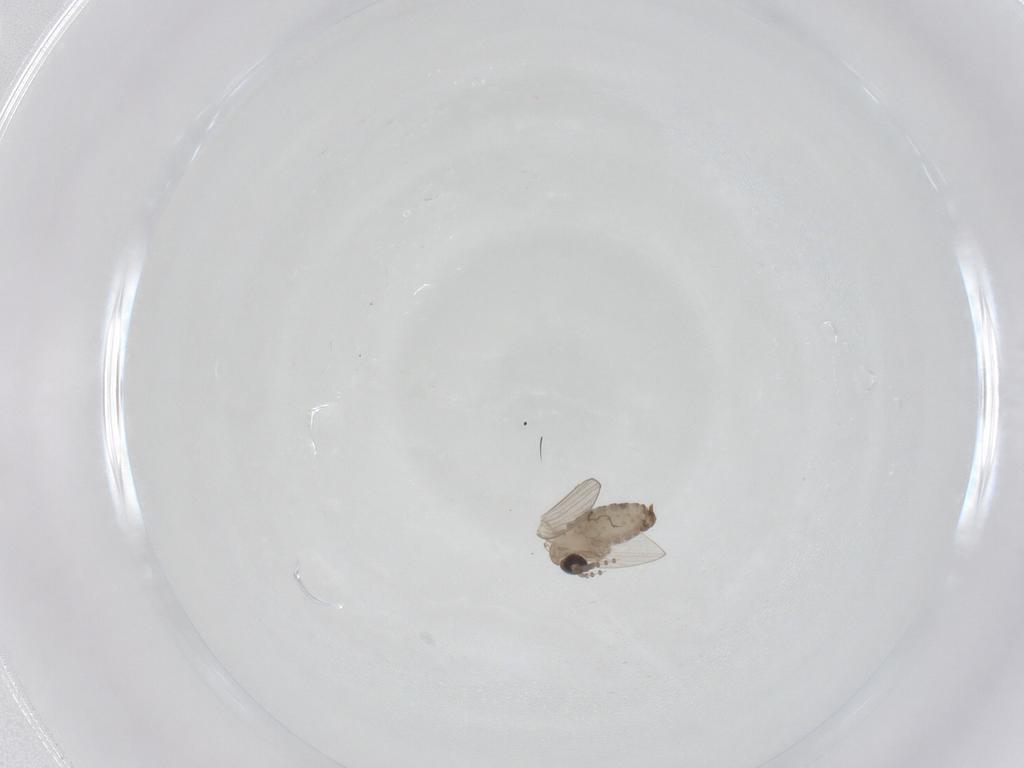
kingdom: Animalia
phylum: Arthropoda
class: Insecta
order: Diptera
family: Psychodidae
